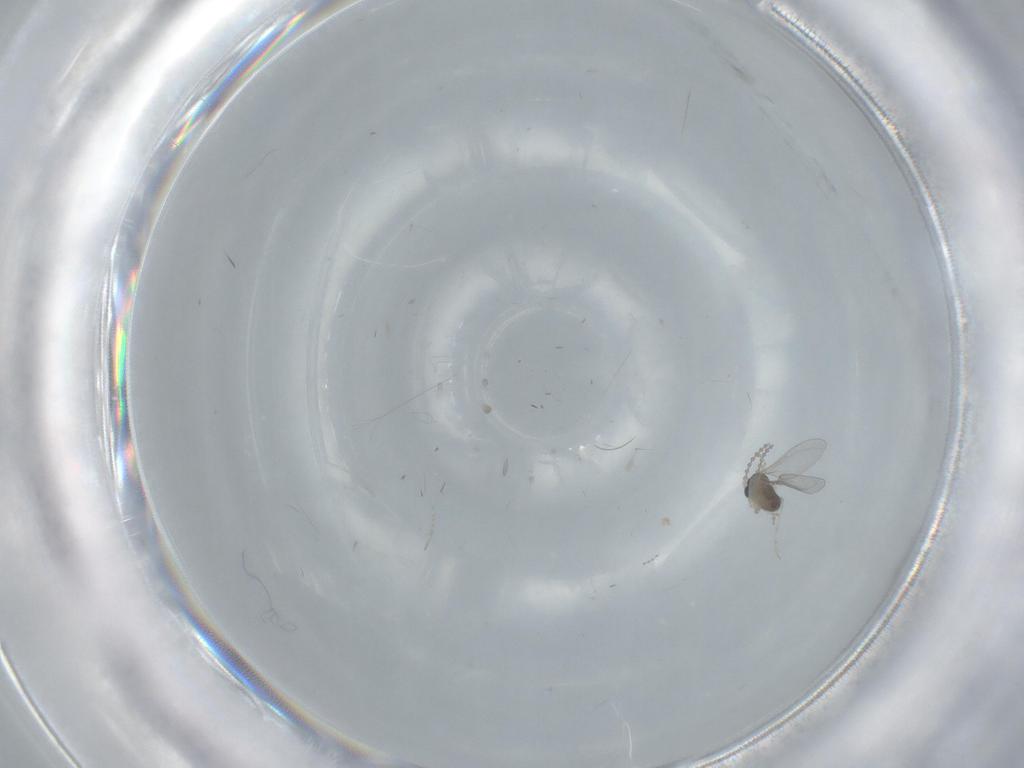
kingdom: Animalia
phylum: Arthropoda
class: Insecta
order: Diptera
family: Cecidomyiidae
